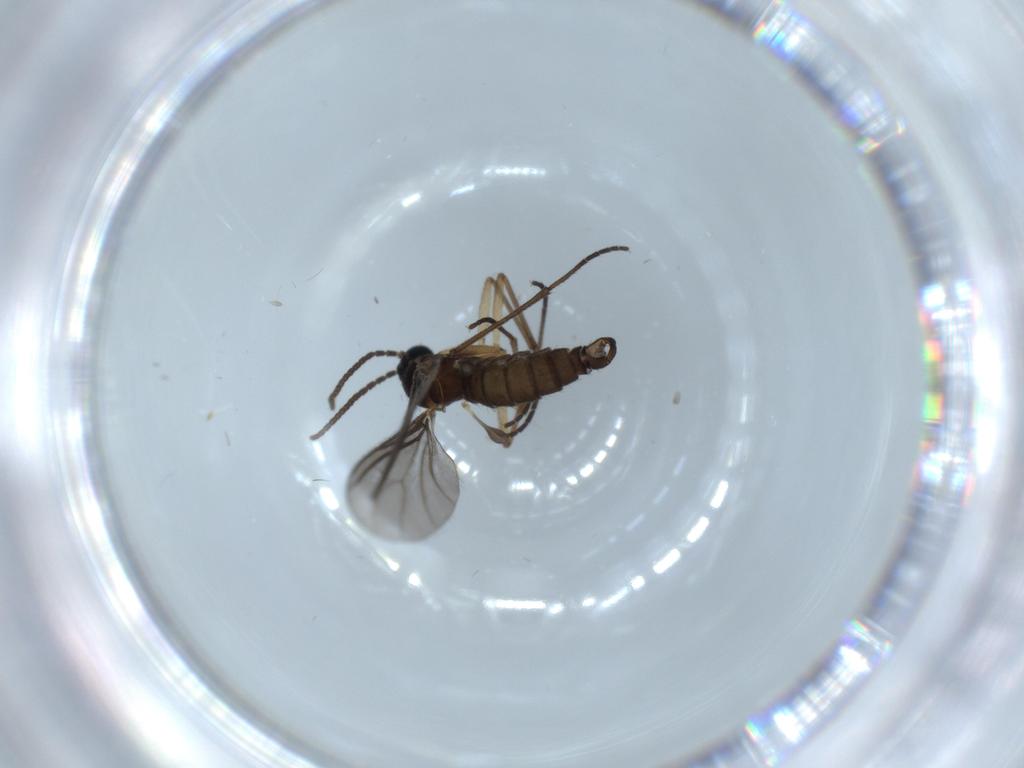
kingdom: Animalia
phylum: Arthropoda
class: Insecta
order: Diptera
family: Sciaridae
